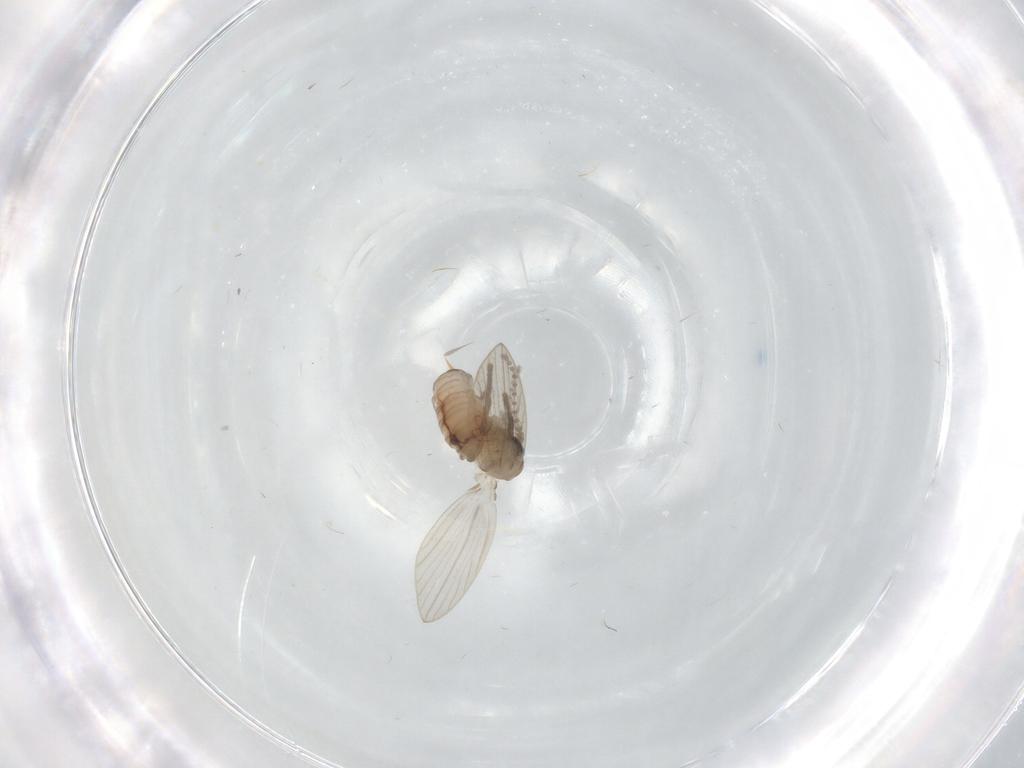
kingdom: Animalia
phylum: Arthropoda
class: Insecta
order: Diptera
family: Psychodidae
